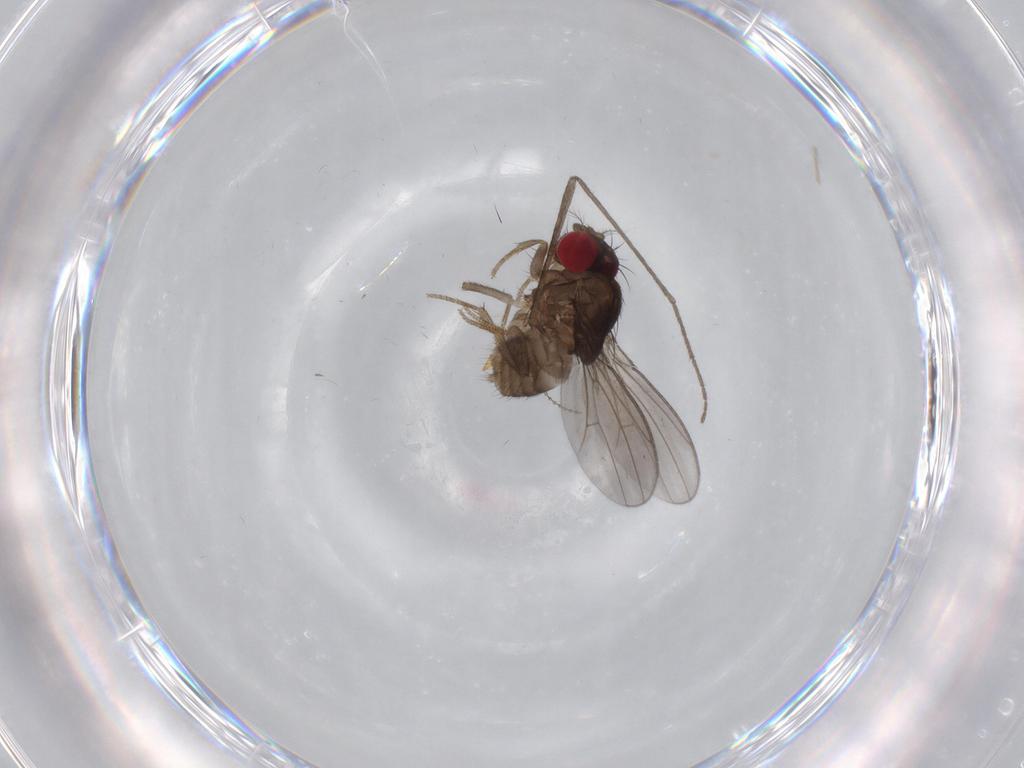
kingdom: Animalia
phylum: Arthropoda
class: Insecta
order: Diptera
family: Drosophilidae
